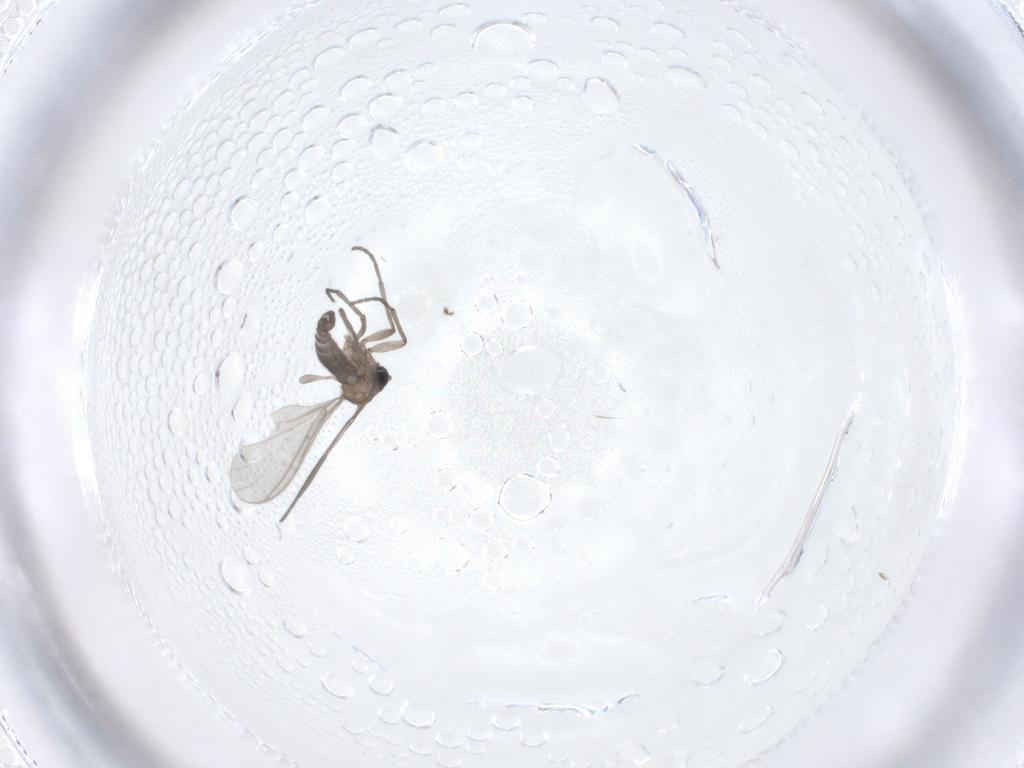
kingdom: Animalia
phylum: Arthropoda
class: Insecta
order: Diptera
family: Sciaridae
